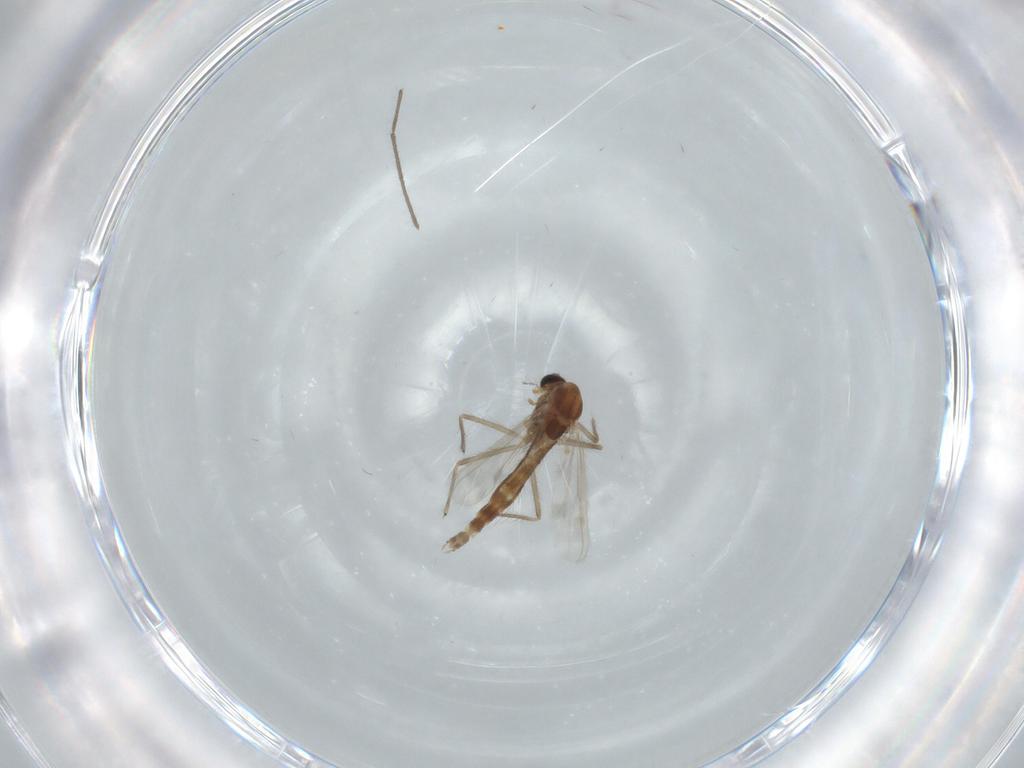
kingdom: Animalia
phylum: Arthropoda
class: Insecta
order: Diptera
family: Chironomidae
